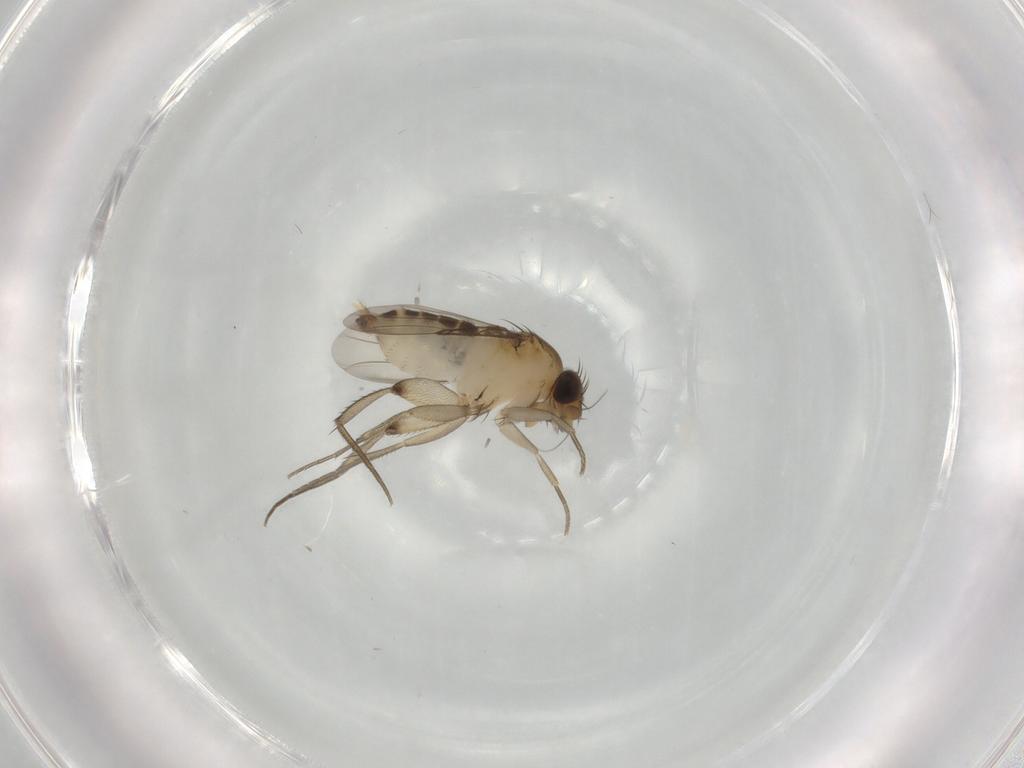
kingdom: Animalia
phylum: Arthropoda
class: Insecta
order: Diptera
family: Phoridae
